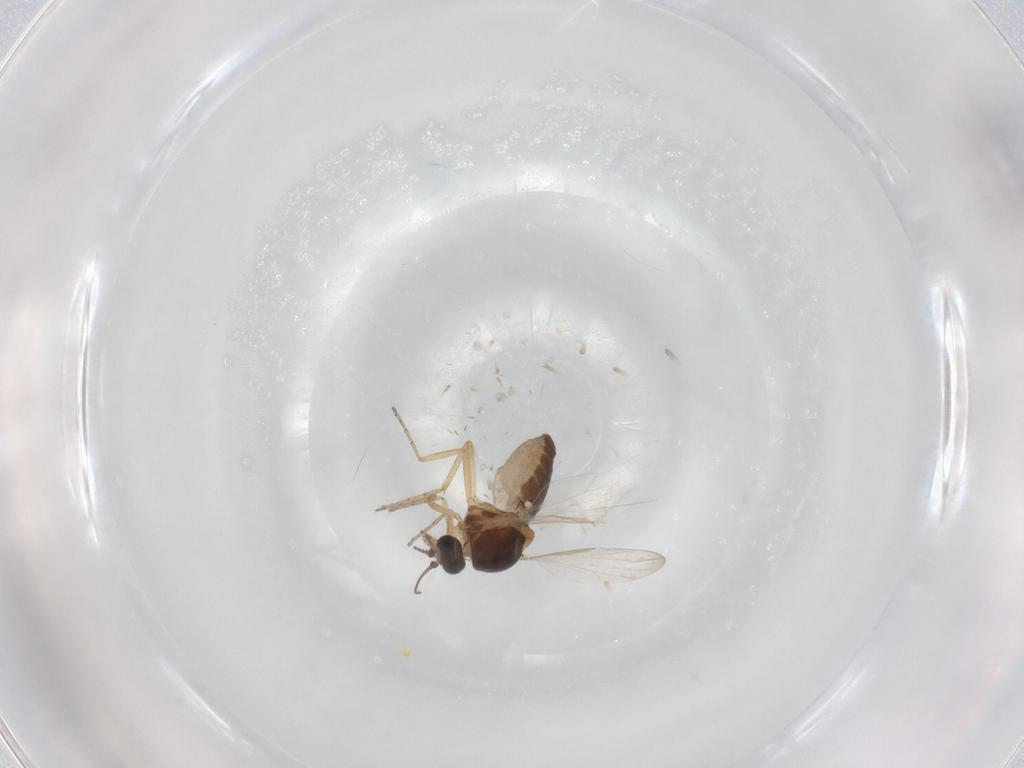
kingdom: Animalia
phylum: Arthropoda
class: Insecta
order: Diptera
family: Ceratopogonidae
